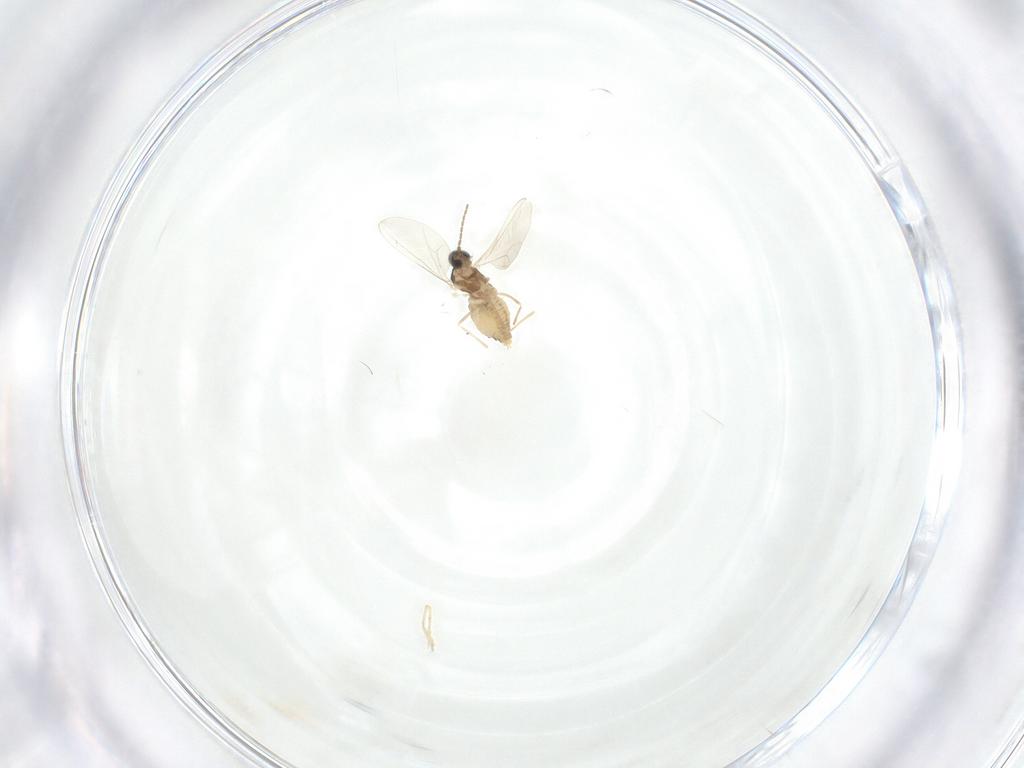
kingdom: Animalia
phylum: Arthropoda
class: Insecta
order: Diptera
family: Cecidomyiidae
